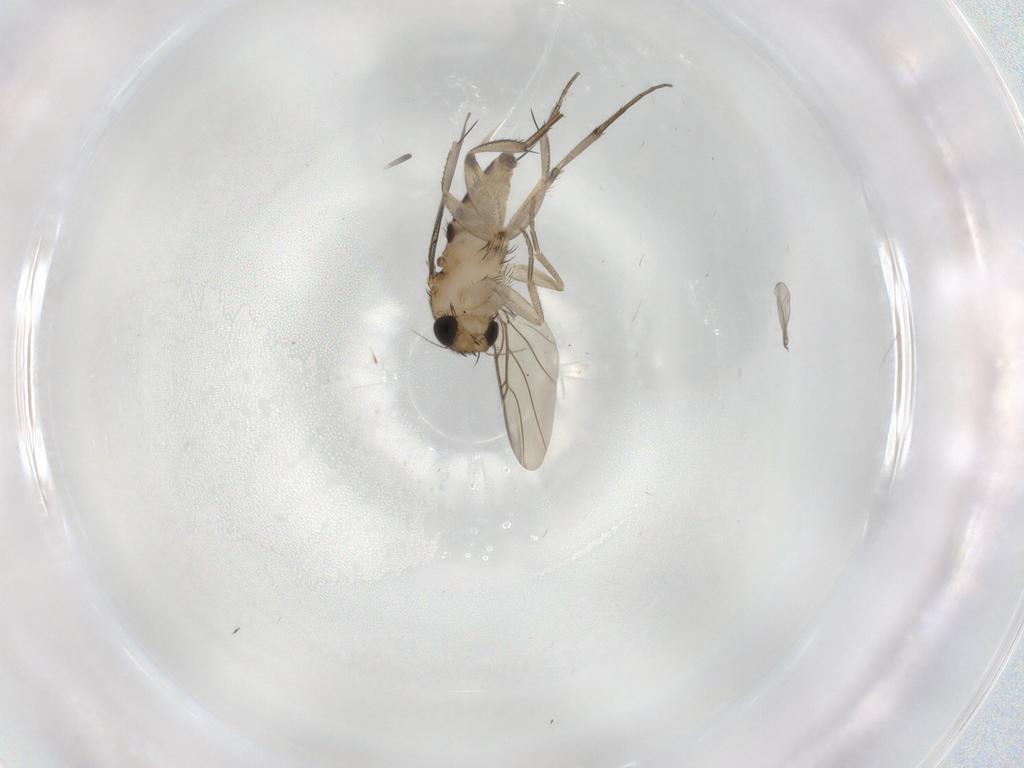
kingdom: Animalia
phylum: Arthropoda
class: Insecta
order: Diptera
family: Phoridae
